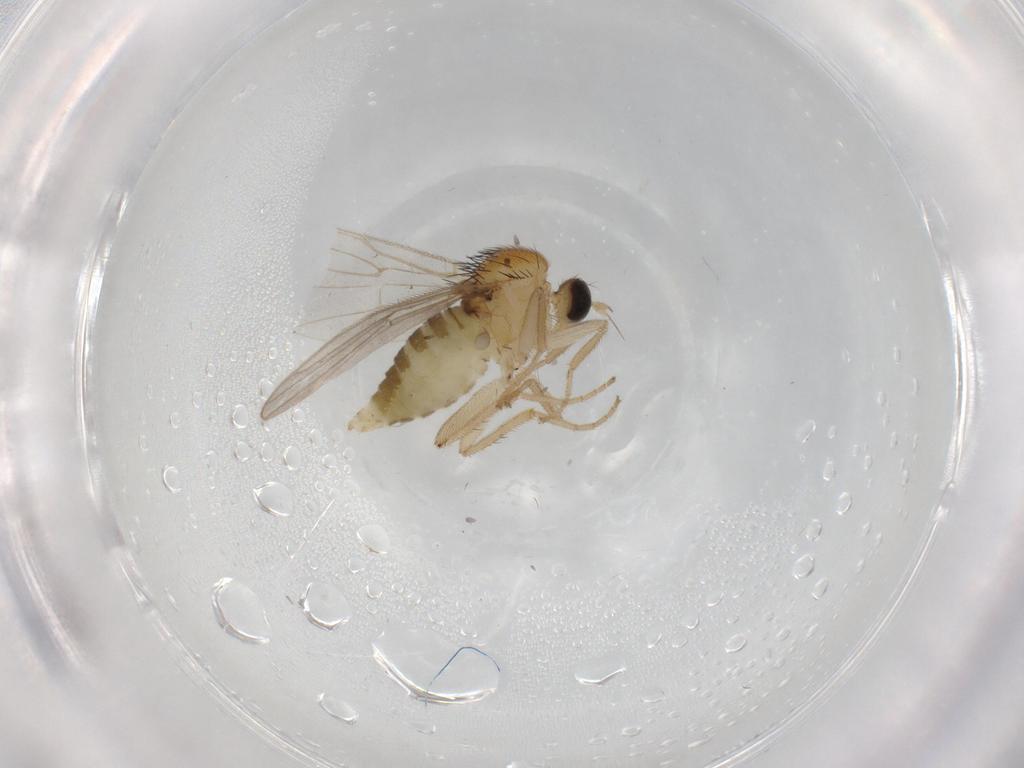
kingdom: Animalia
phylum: Arthropoda
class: Insecta
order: Diptera
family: Hybotidae
